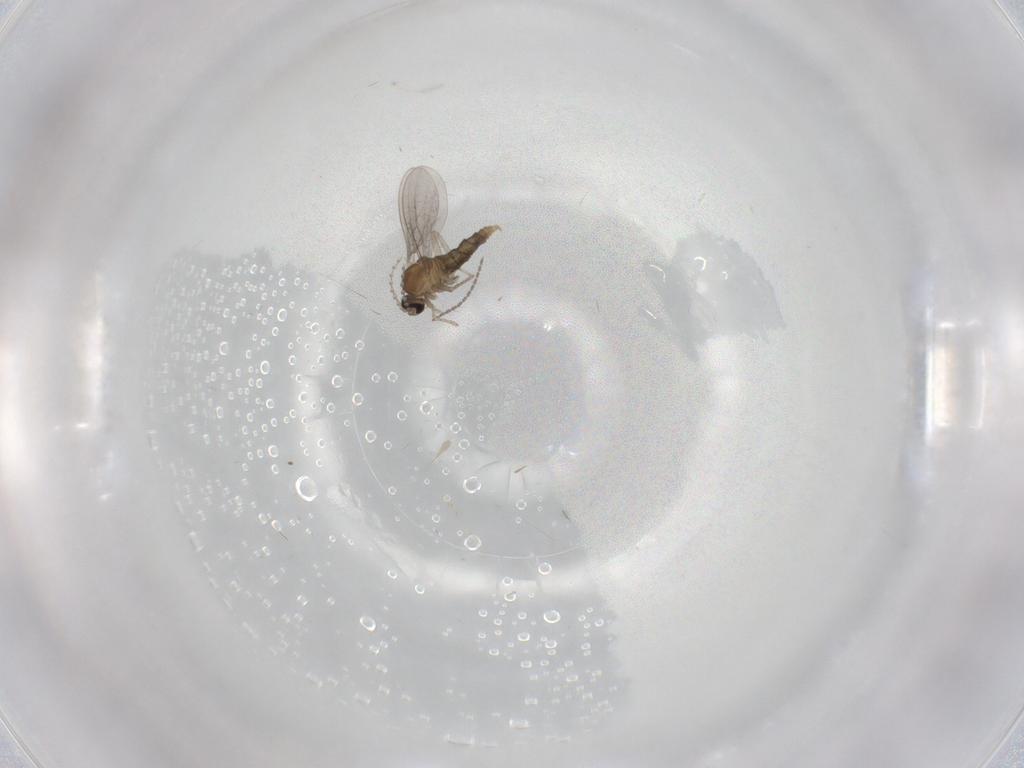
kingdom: Animalia
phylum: Arthropoda
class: Insecta
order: Diptera
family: Cecidomyiidae
